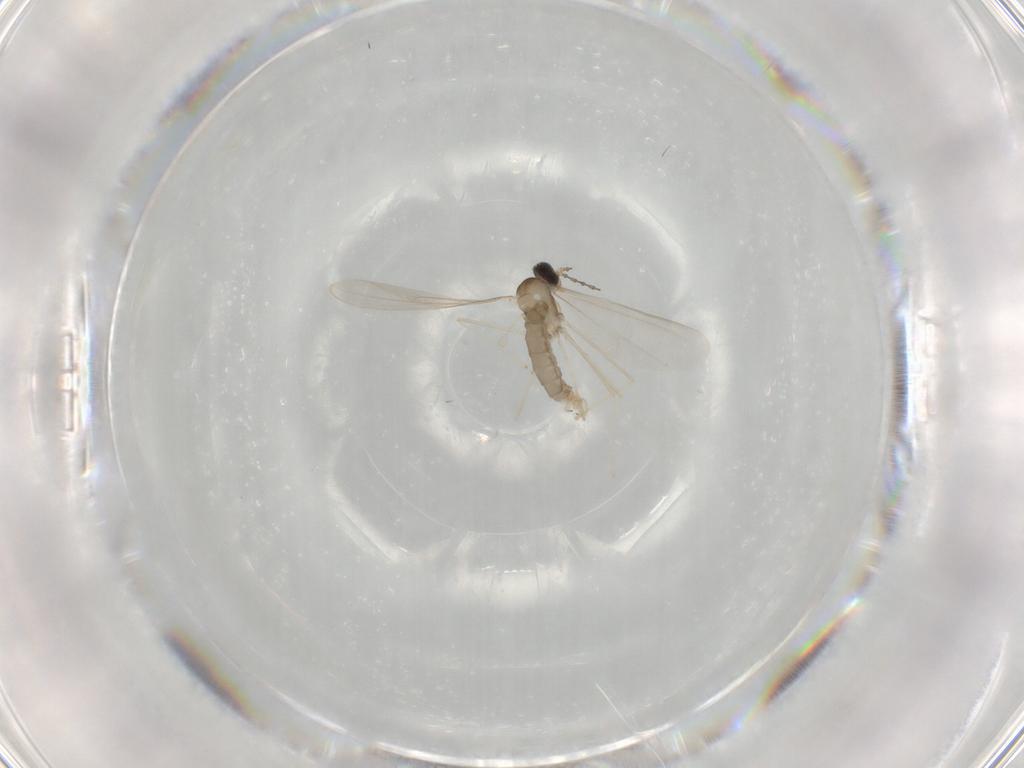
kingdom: Animalia
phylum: Arthropoda
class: Insecta
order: Diptera
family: Cecidomyiidae
